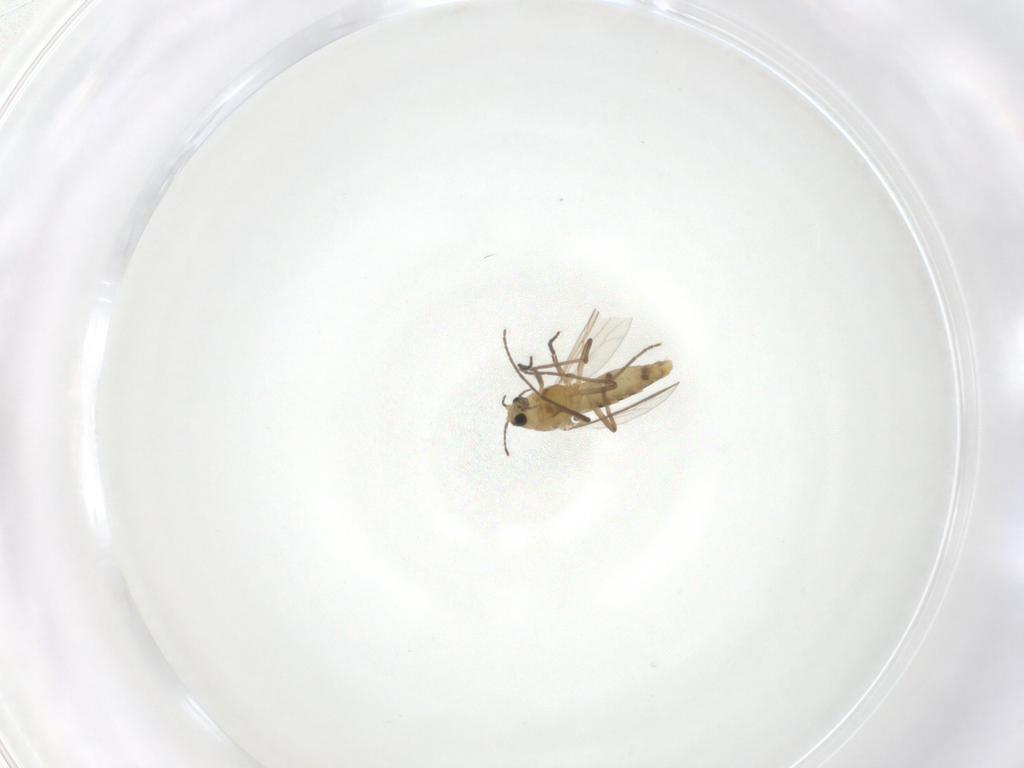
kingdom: Animalia
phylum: Arthropoda
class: Insecta
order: Diptera
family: Chironomidae
